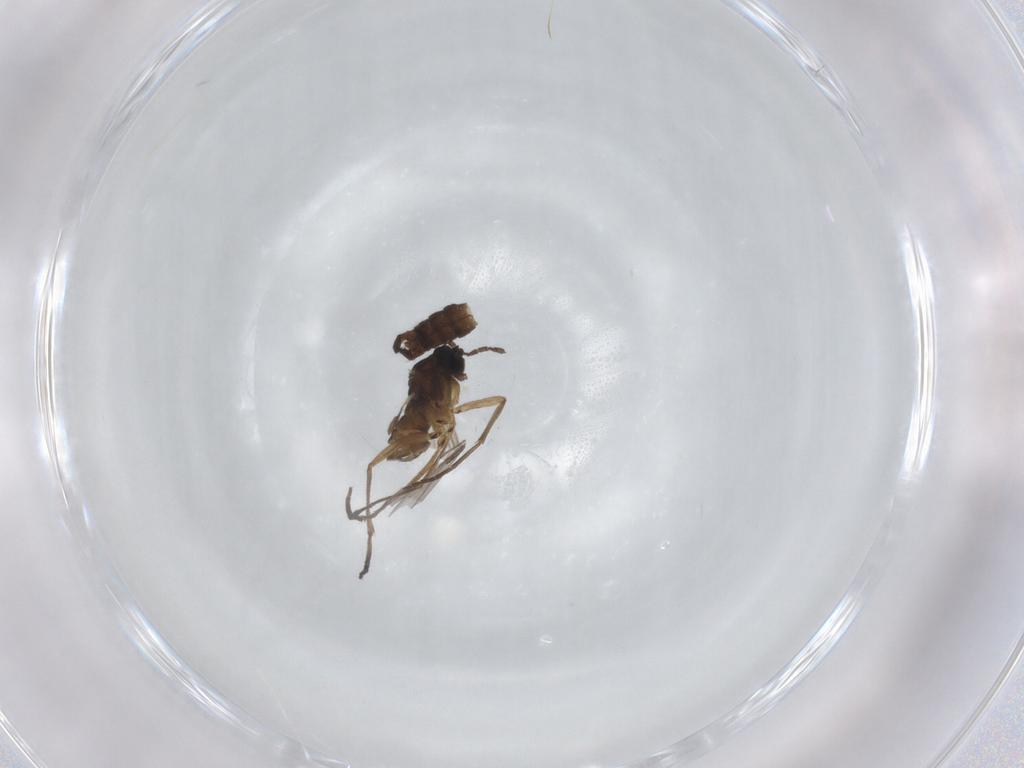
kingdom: Animalia
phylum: Arthropoda
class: Insecta
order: Diptera
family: Sciaridae
